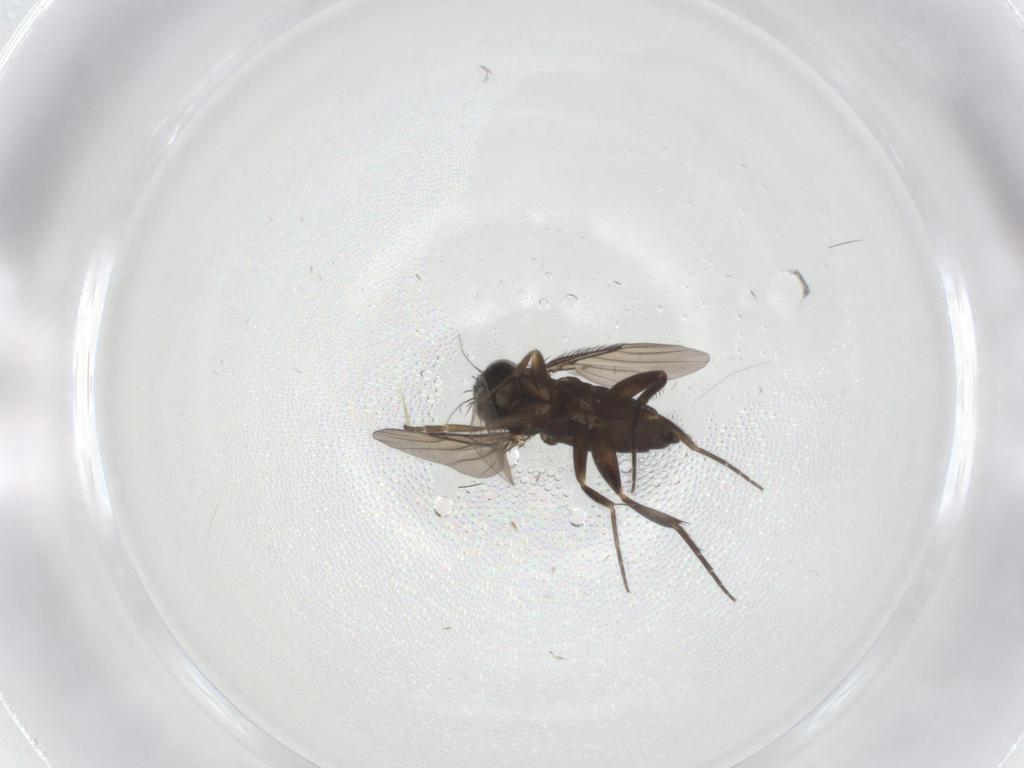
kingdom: Animalia
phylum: Arthropoda
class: Insecta
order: Diptera
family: Phoridae
